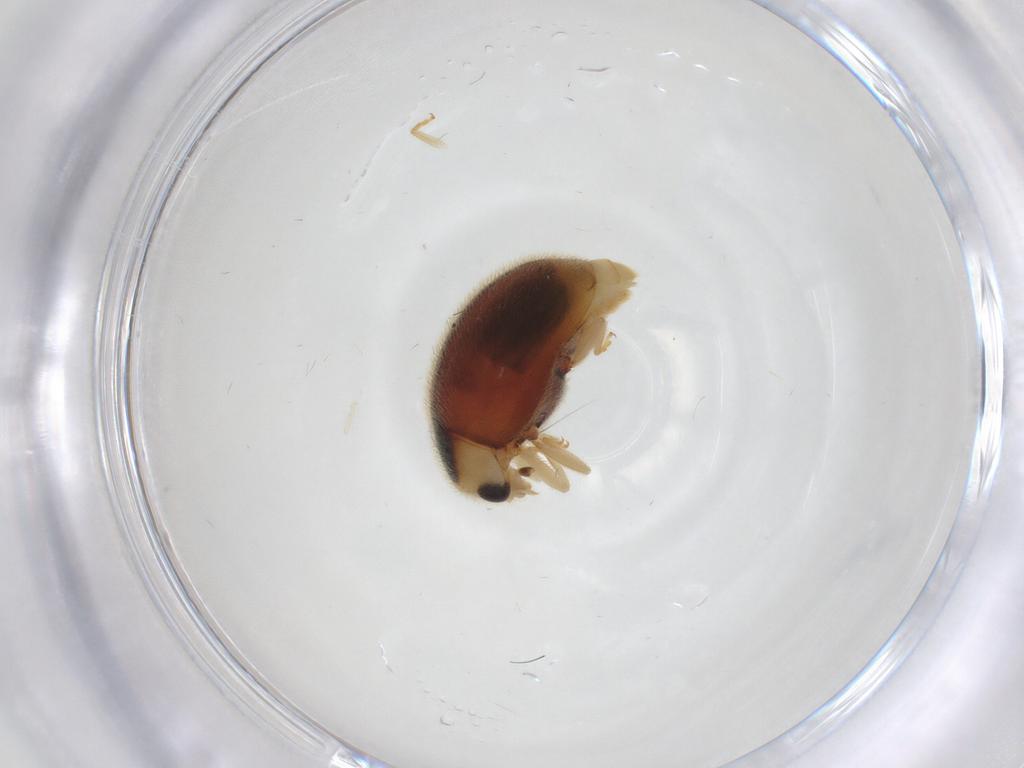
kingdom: Animalia
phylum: Arthropoda
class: Insecta
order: Coleoptera
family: Coccinellidae
